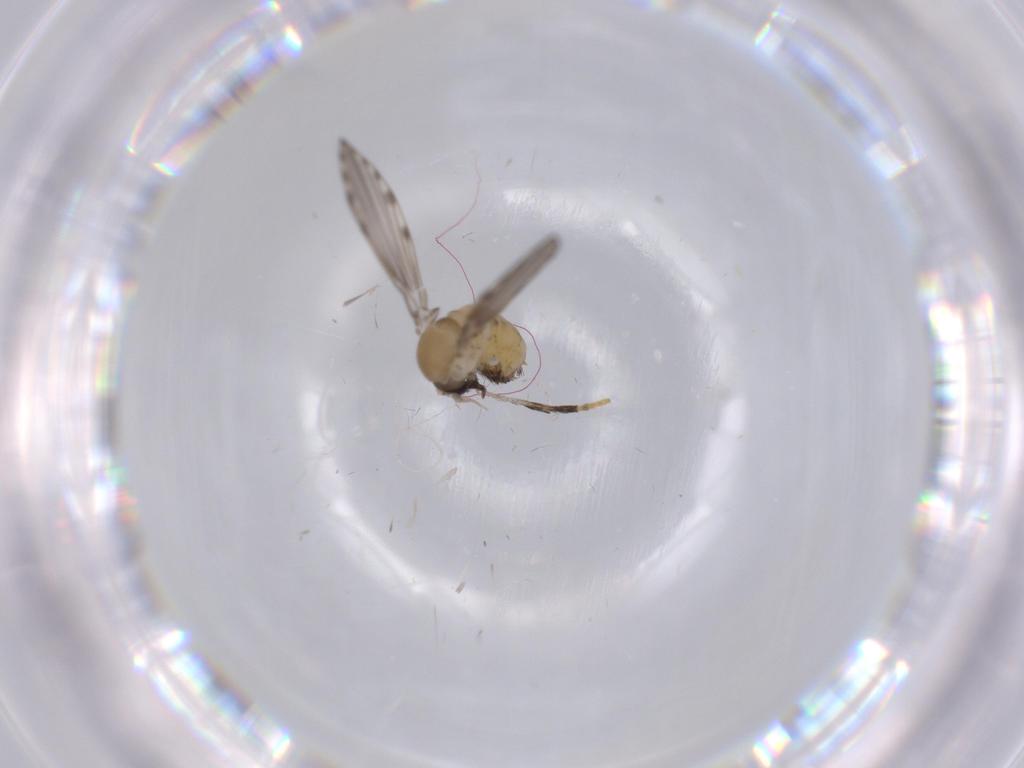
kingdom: Animalia
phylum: Arthropoda
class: Insecta
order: Diptera
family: Psychodidae
